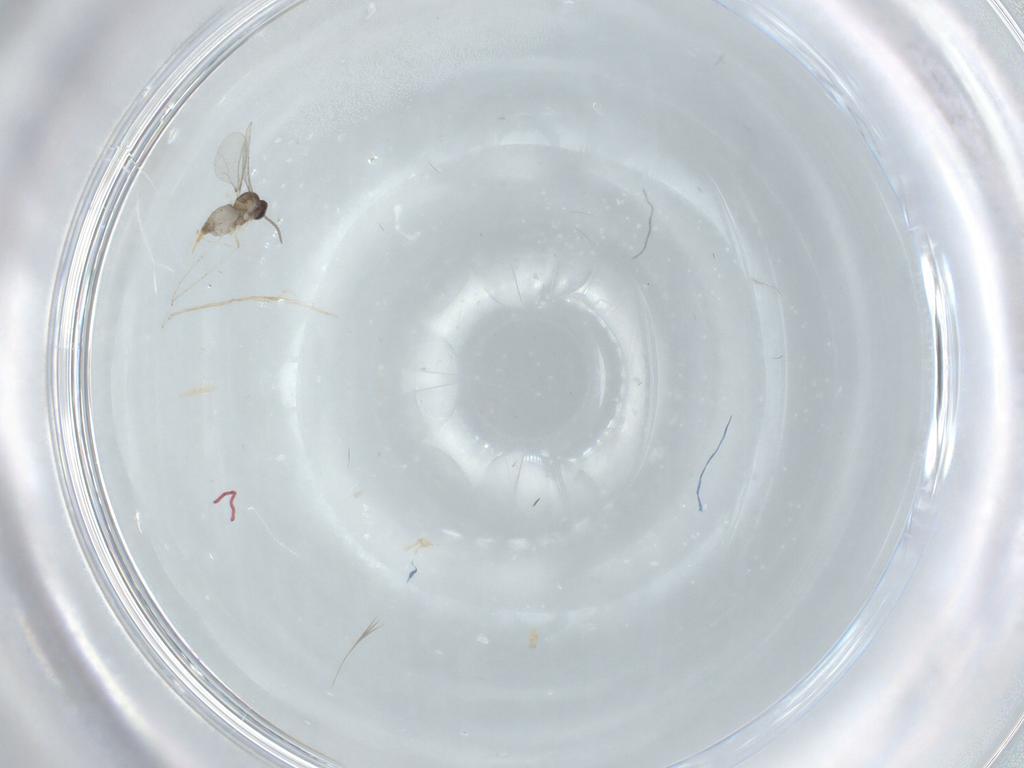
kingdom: Animalia
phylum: Arthropoda
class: Insecta
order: Diptera
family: Cecidomyiidae
